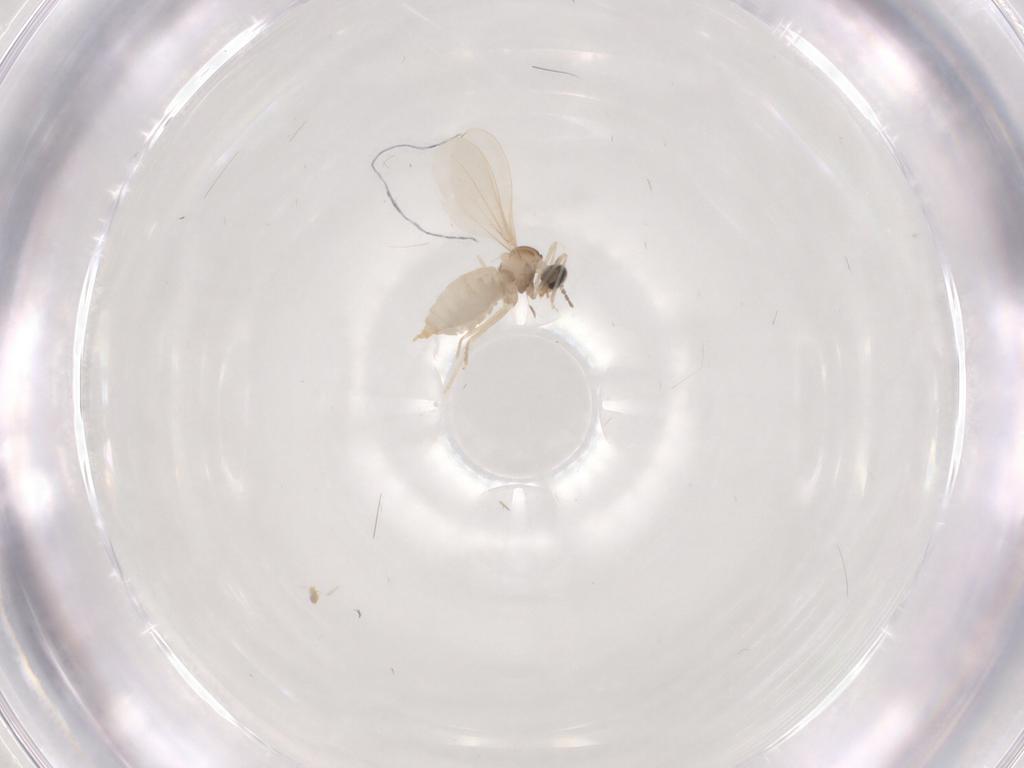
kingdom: Animalia
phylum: Arthropoda
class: Insecta
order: Diptera
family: Cecidomyiidae
